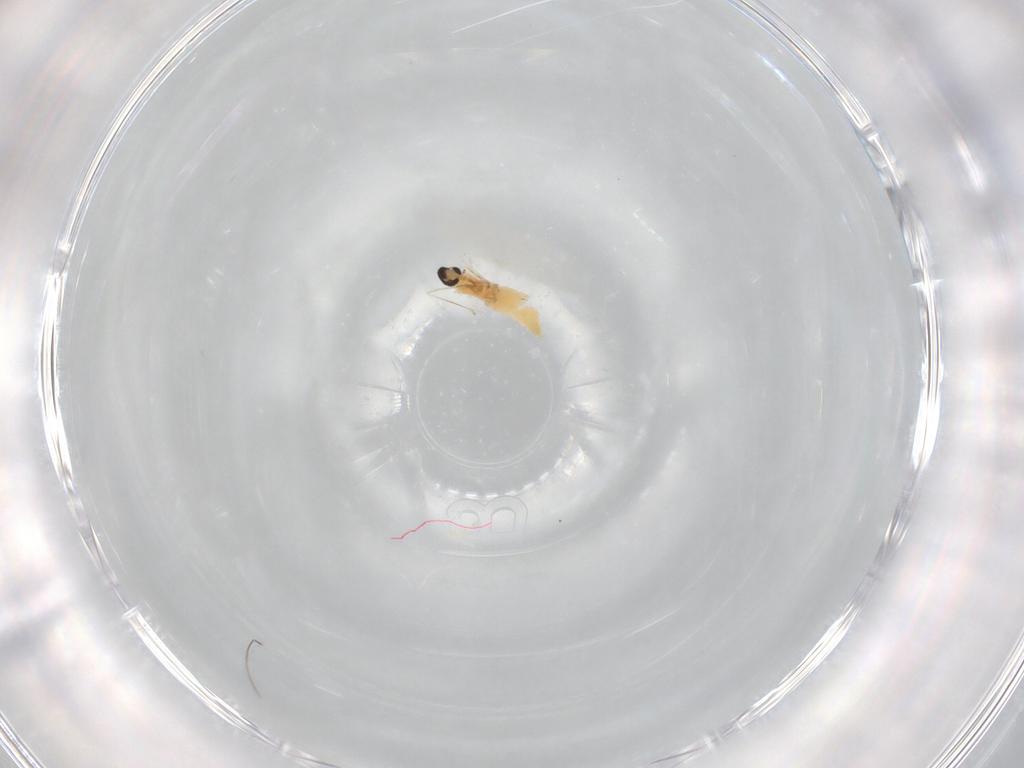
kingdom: Animalia
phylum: Arthropoda
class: Insecta
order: Diptera
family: Cecidomyiidae
